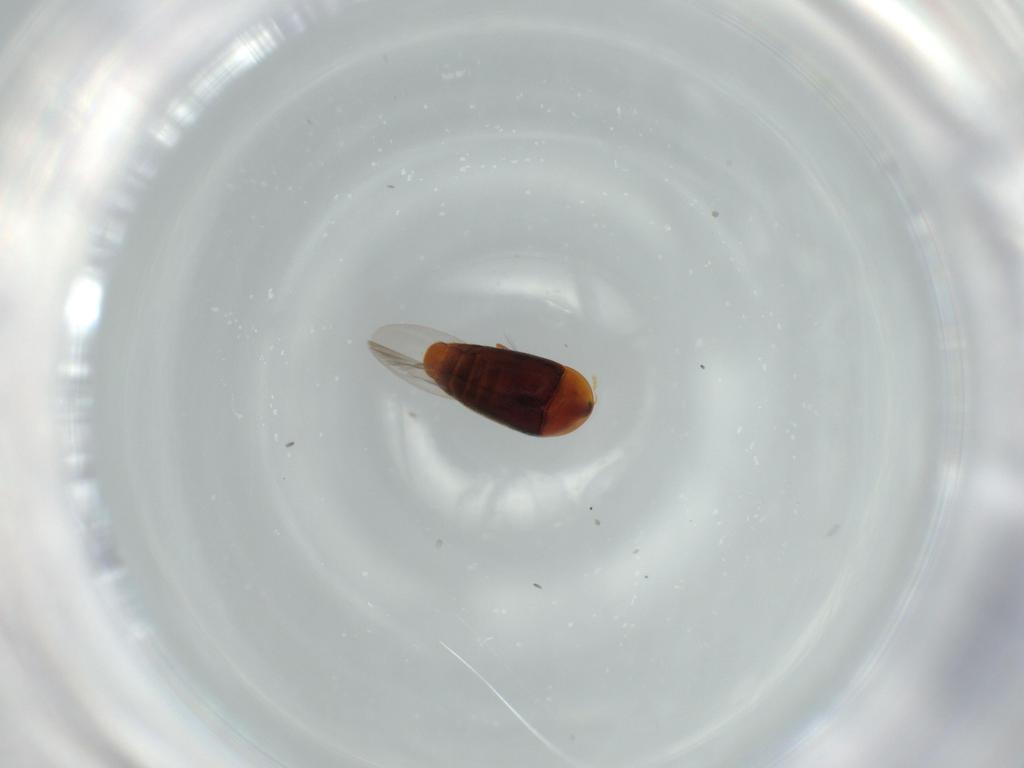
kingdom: Animalia
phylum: Arthropoda
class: Insecta
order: Coleoptera
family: Corylophidae
